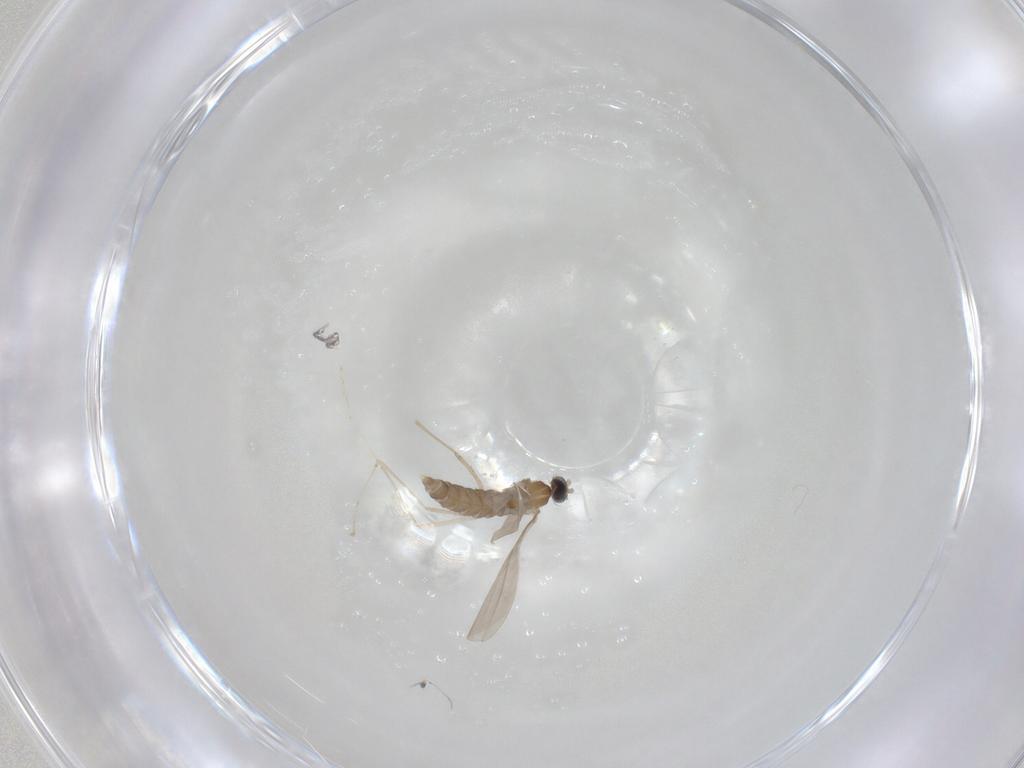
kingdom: Animalia
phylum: Arthropoda
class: Insecta
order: Diptera
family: Cecidomyiidae
